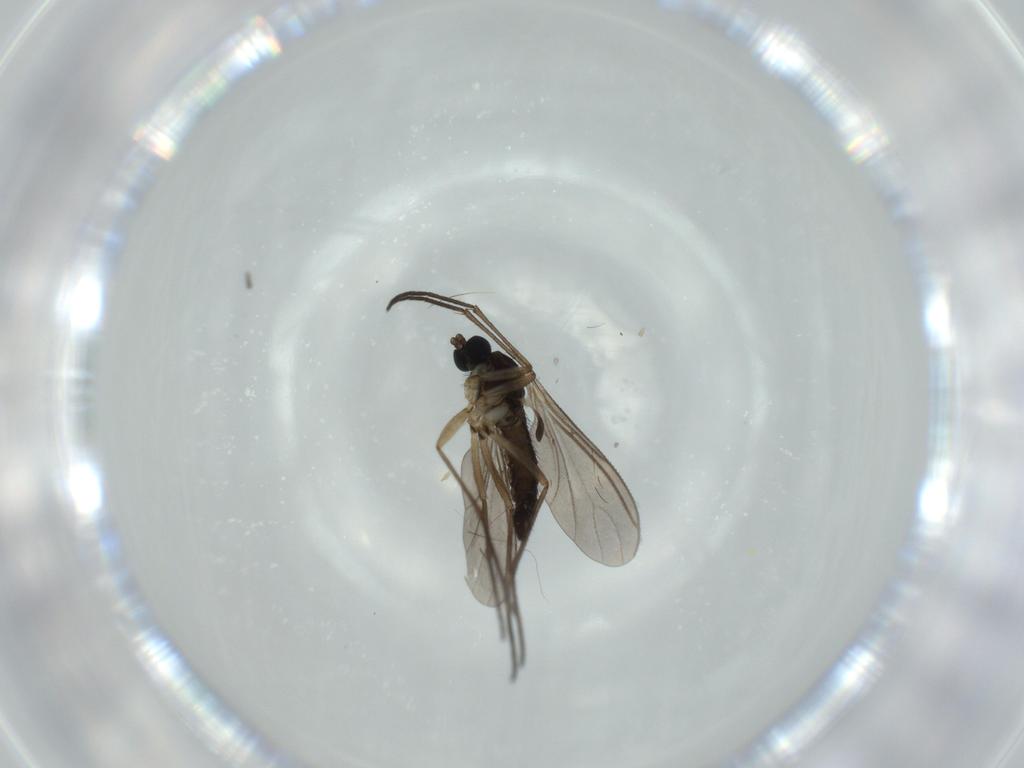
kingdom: Animalia
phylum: Arthropoda
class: Insecta
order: Diptera
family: Sciaridae
